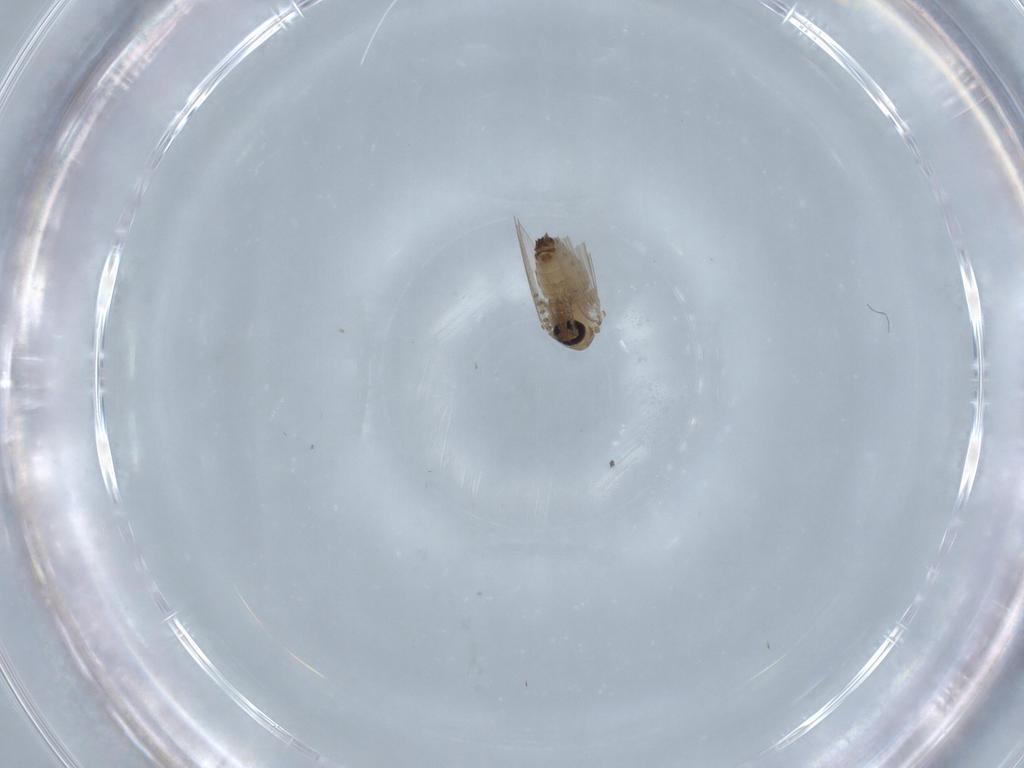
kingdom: Animalia
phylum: Arthropoda
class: Insecta
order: Diptera
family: Psychodidae
